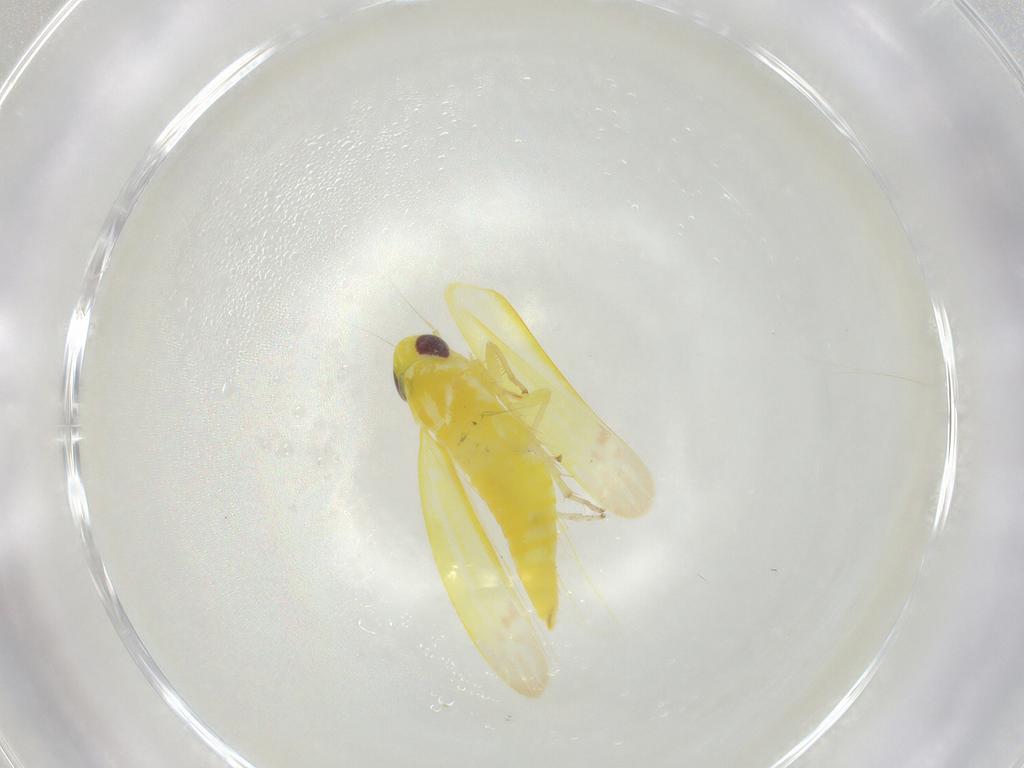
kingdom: Animalia
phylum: Arthropoda
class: Insecta
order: Hemiptera
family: Cicadellidae
